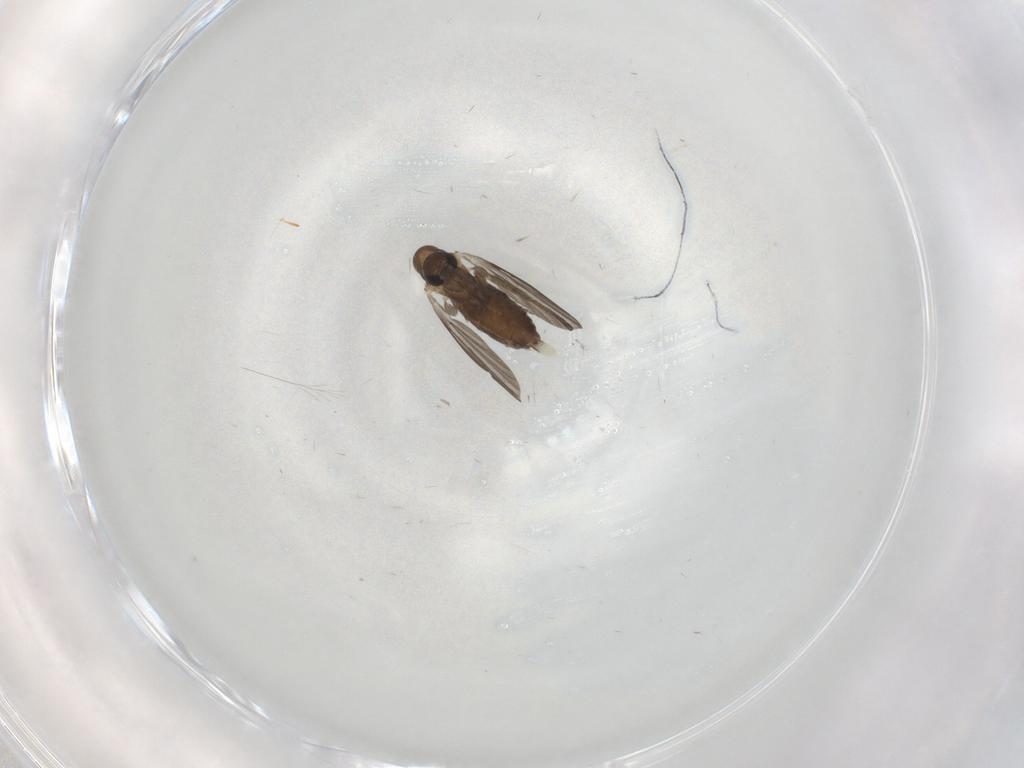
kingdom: Animalia
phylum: Arthropoda
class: Insecta
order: Diptera
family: Cecidomyiidae
